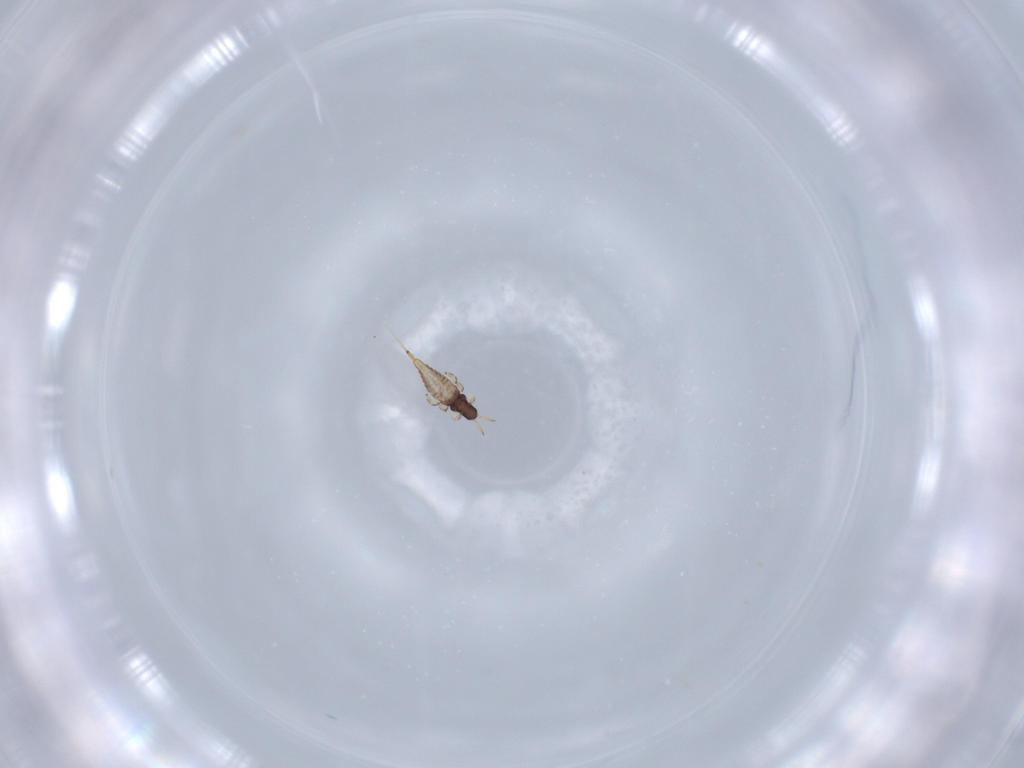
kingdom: Animalia
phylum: Arthropoda
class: Insecta
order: Thysanoptera
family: Phlaeothripidae
